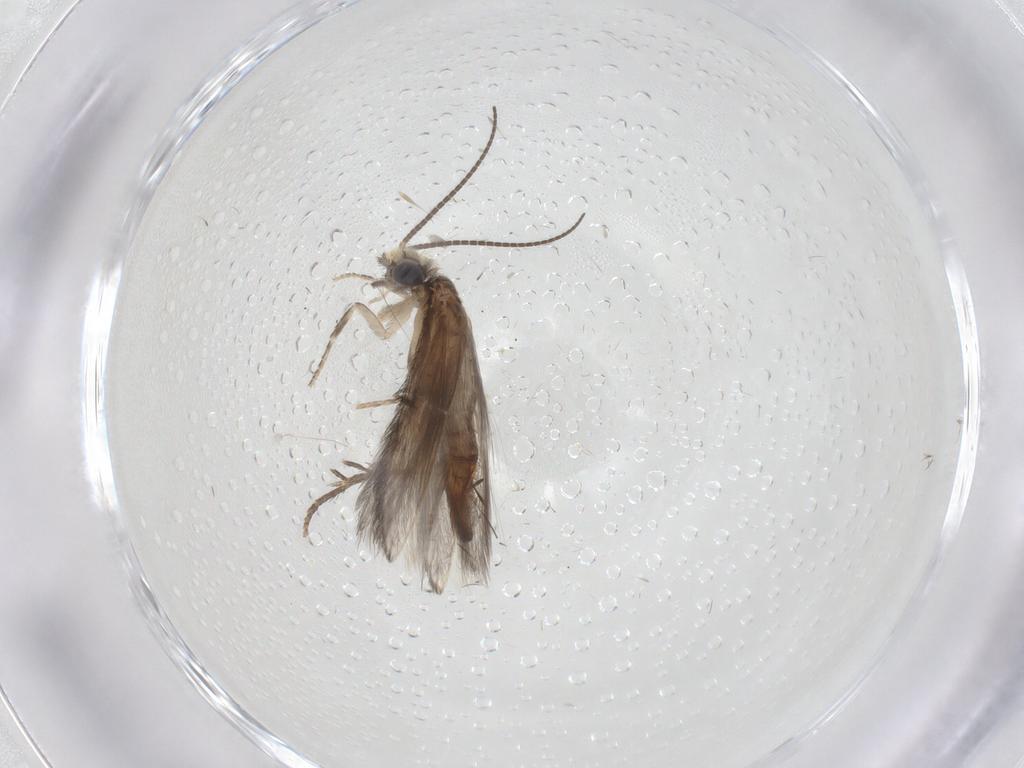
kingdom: Animalia
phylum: Arthropoda
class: Insecta
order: Trichoptera
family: Hydroptilidae
